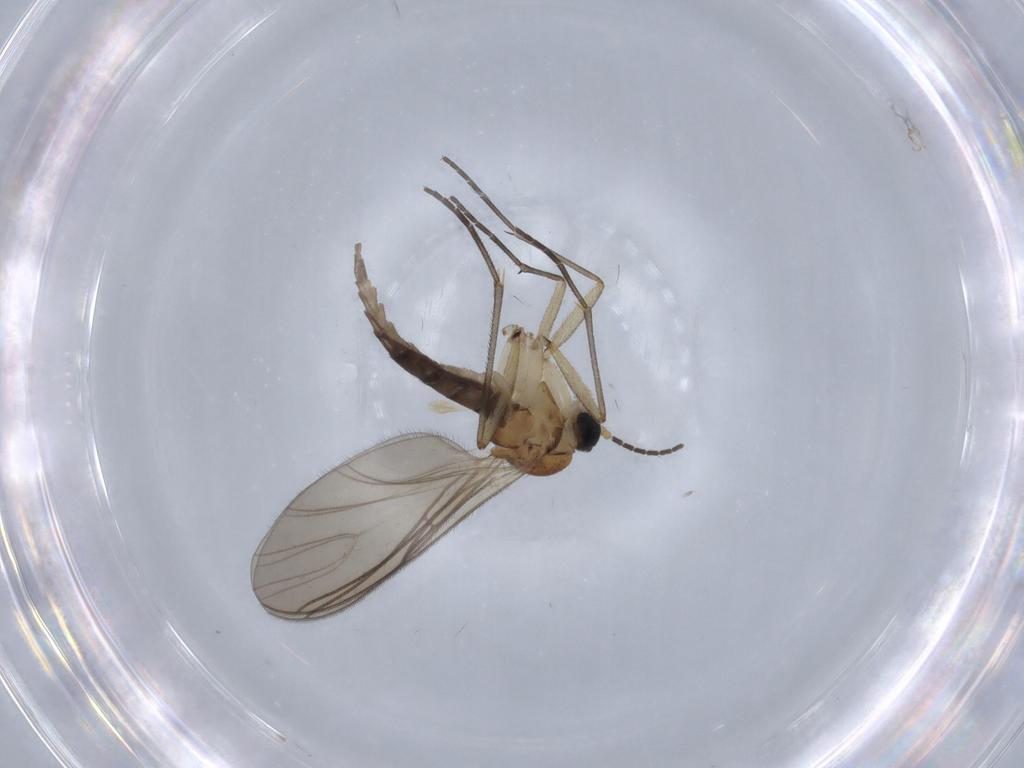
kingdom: Animalia
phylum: Arthropoda
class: Insecta
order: Diptera
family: Sciaridae
